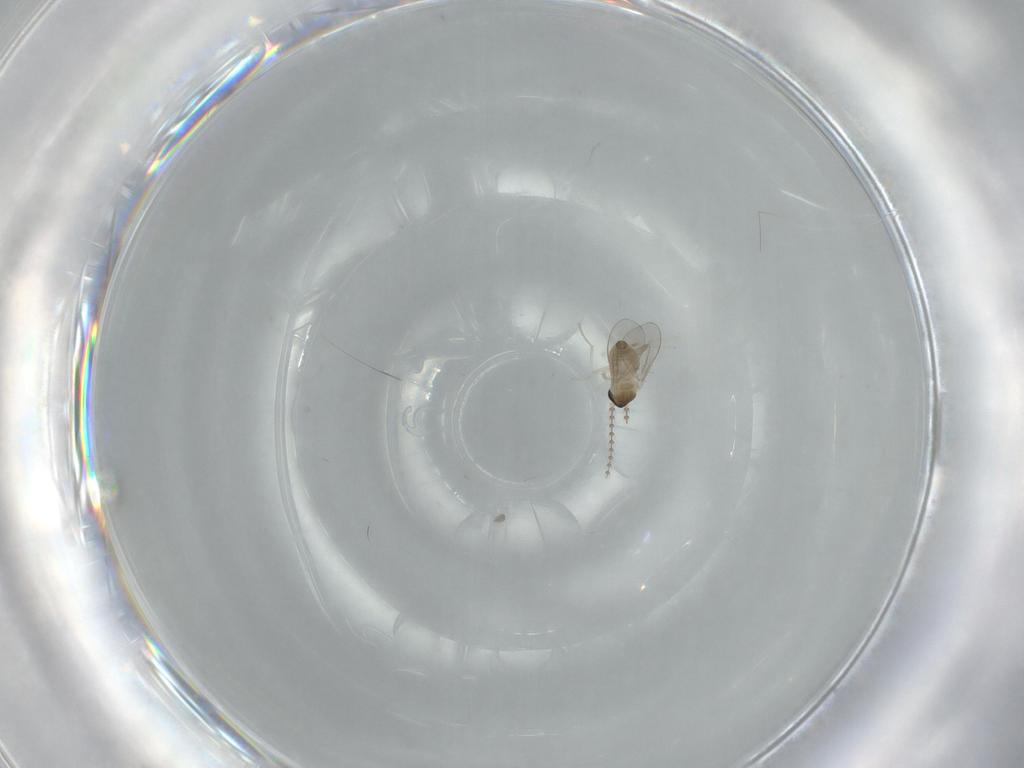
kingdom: Animalia
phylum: Arthropoda
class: Insecta
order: Diptera
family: Cecidomyiidae
